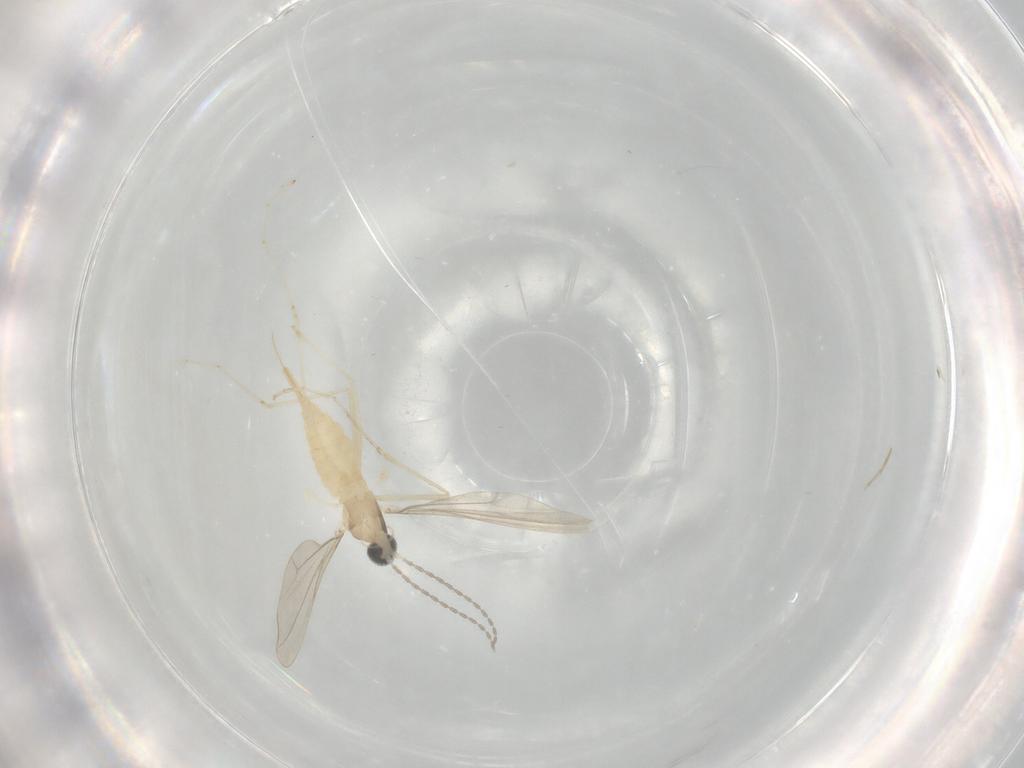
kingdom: Animalia
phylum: Arthropoda
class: Insecta
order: Diptera
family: Cecidomyiidae
